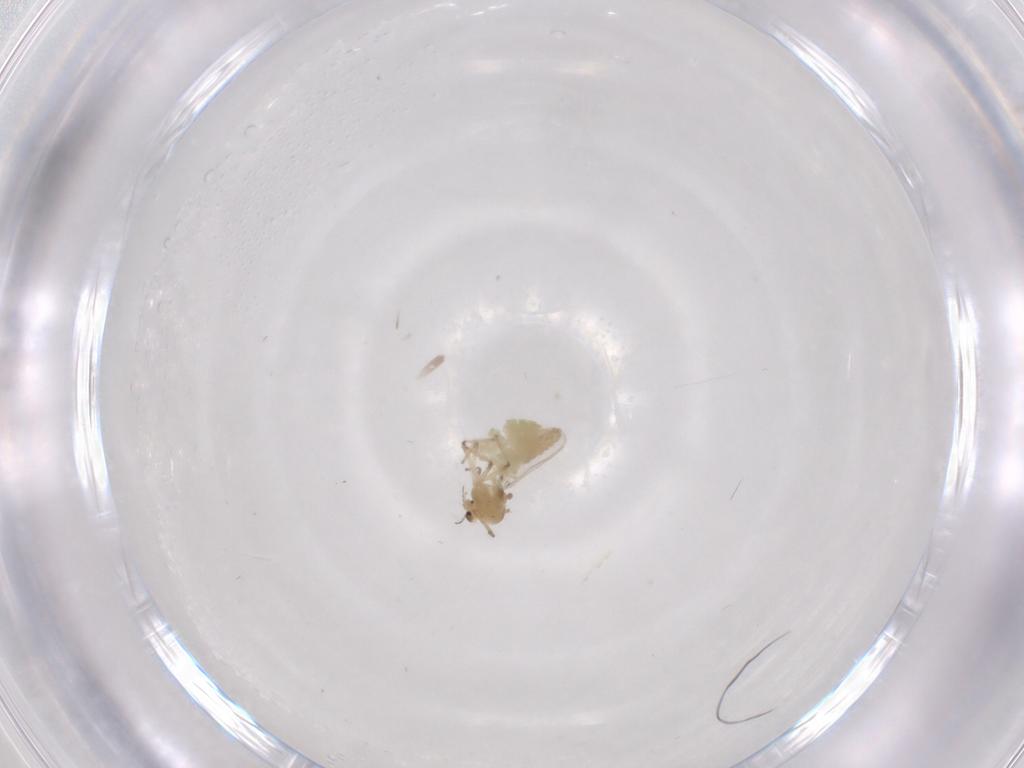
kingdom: Animalia
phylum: Arthropoda
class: Insecta
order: Diptera
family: Chironomidae
